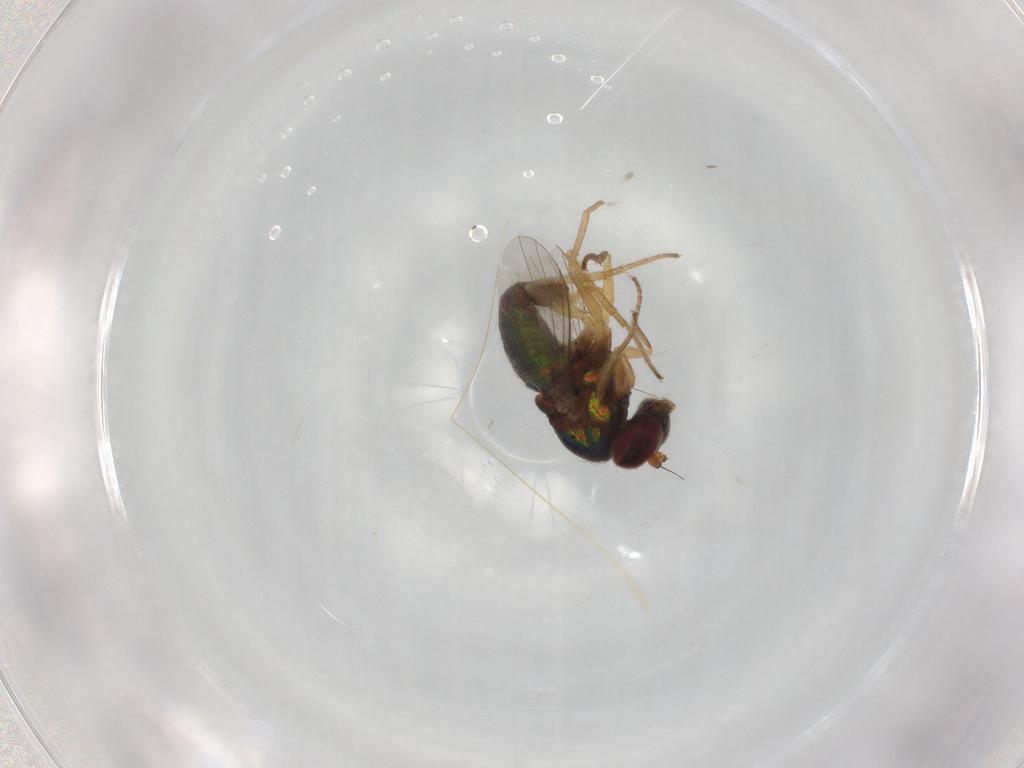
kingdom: Animalia
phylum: Arthropoda
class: Insecta
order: Diptera
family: Dolichopodidae
